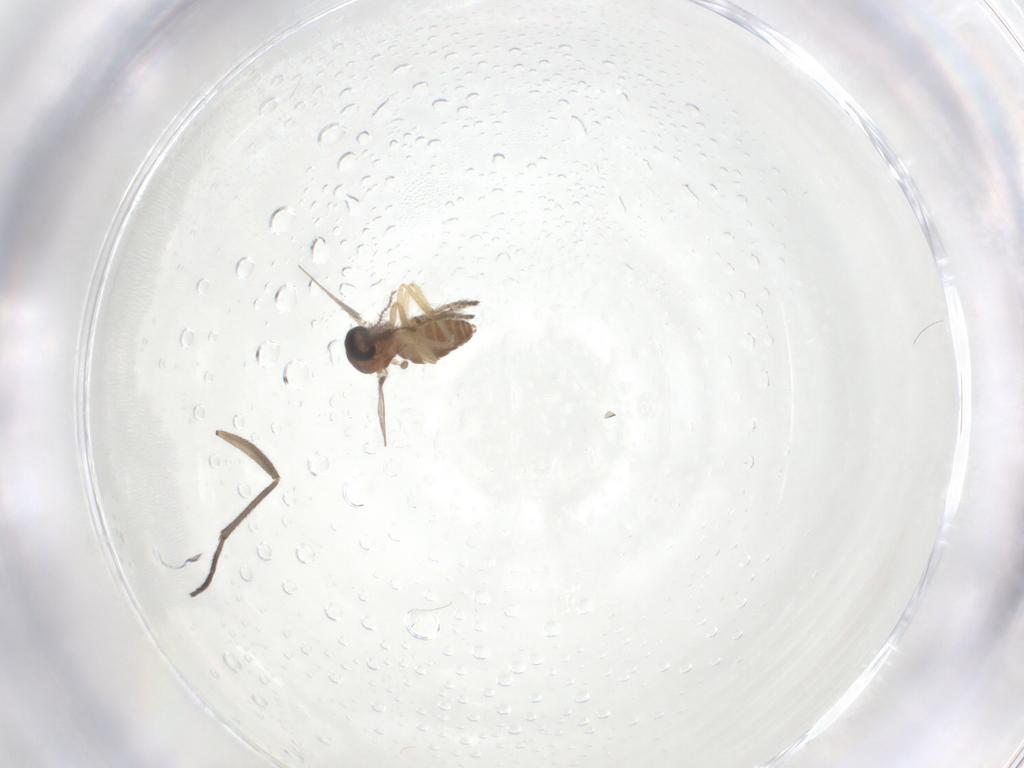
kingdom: Animalia
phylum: Arthropoda
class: Insecta
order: Diptera
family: Ceratopogonidae
